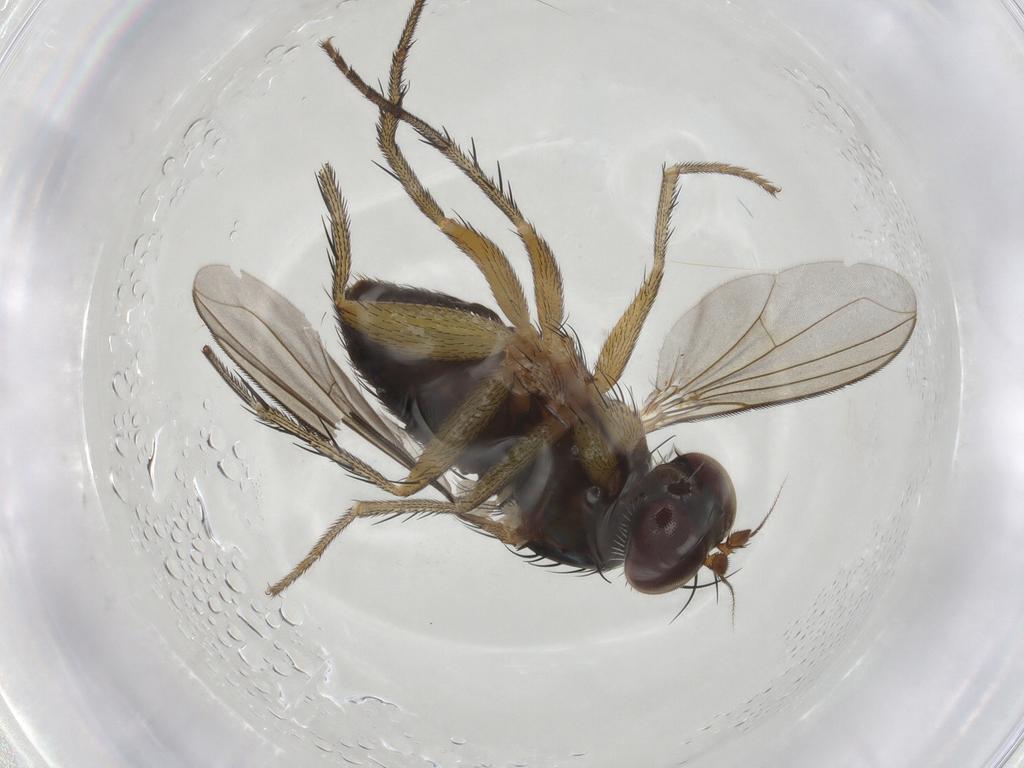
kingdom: Animalia
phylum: Arthropoda
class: Insecta
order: Diptera
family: Dolichopodidae
